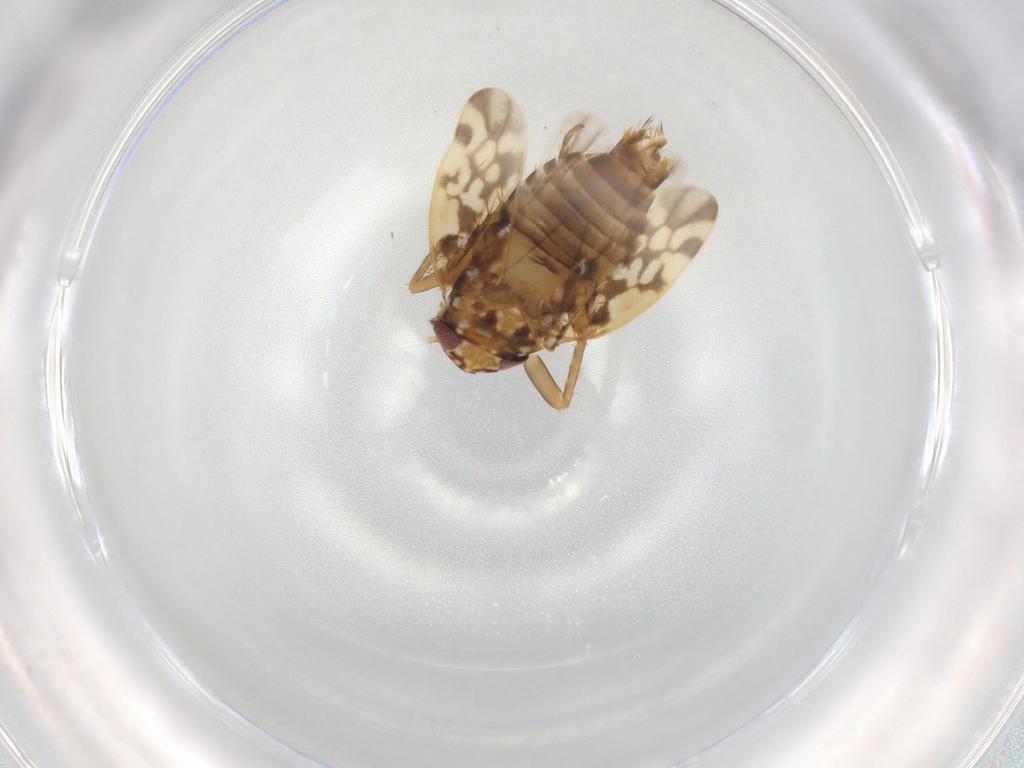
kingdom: Animalia
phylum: Arthropoda
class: Insecta
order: Hemiptera
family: Cicadellidae
